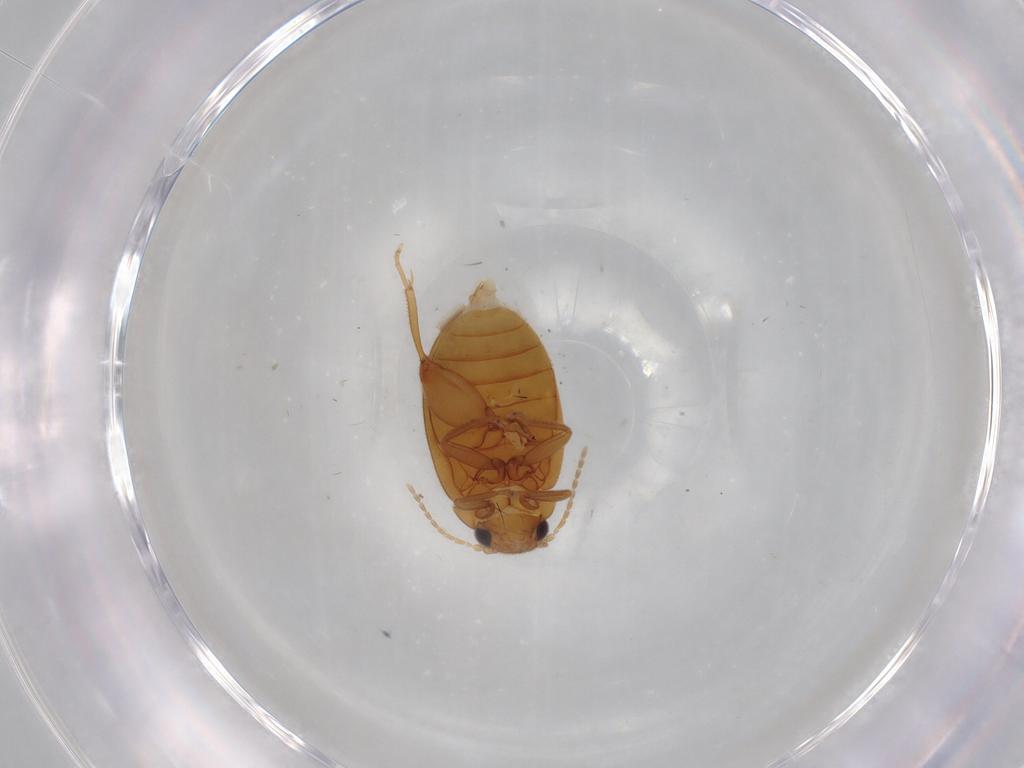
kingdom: Animalia
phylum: Arthropoda
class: Insecta
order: Coleoptera
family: Scirtidae
